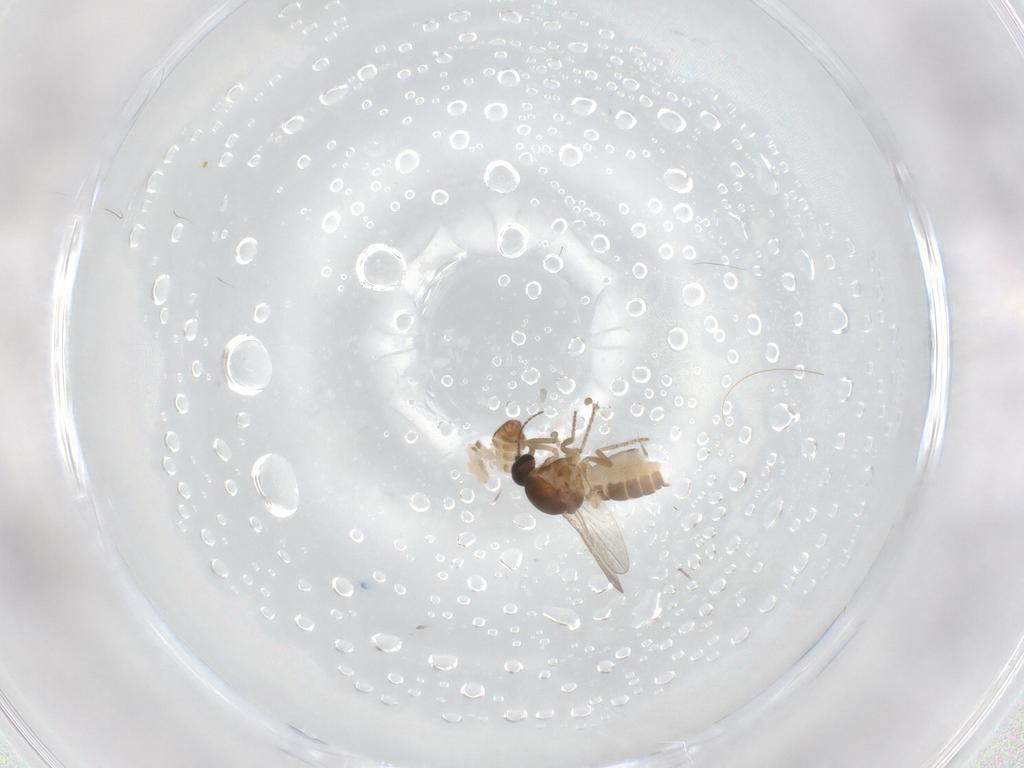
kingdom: Animalia
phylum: Arthropoda
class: Insecta
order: Diptera
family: Ceratopogonidae
